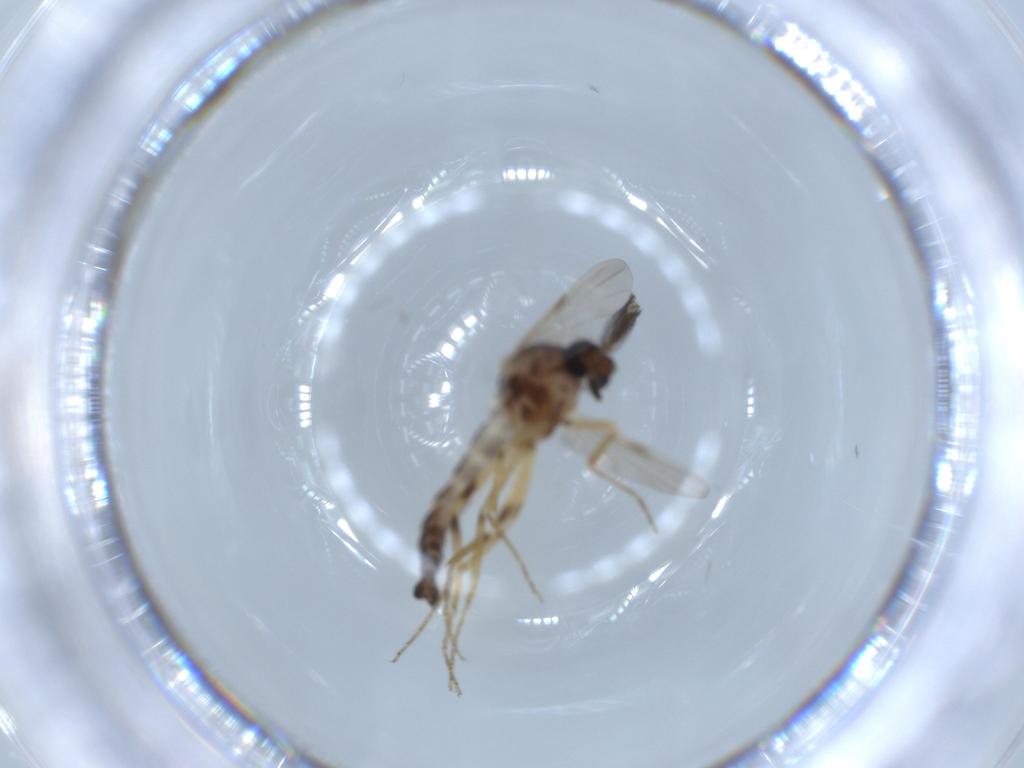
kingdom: Animalia
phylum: Arthropoda
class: Insecta
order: Diptera
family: Ceratopogonidae
